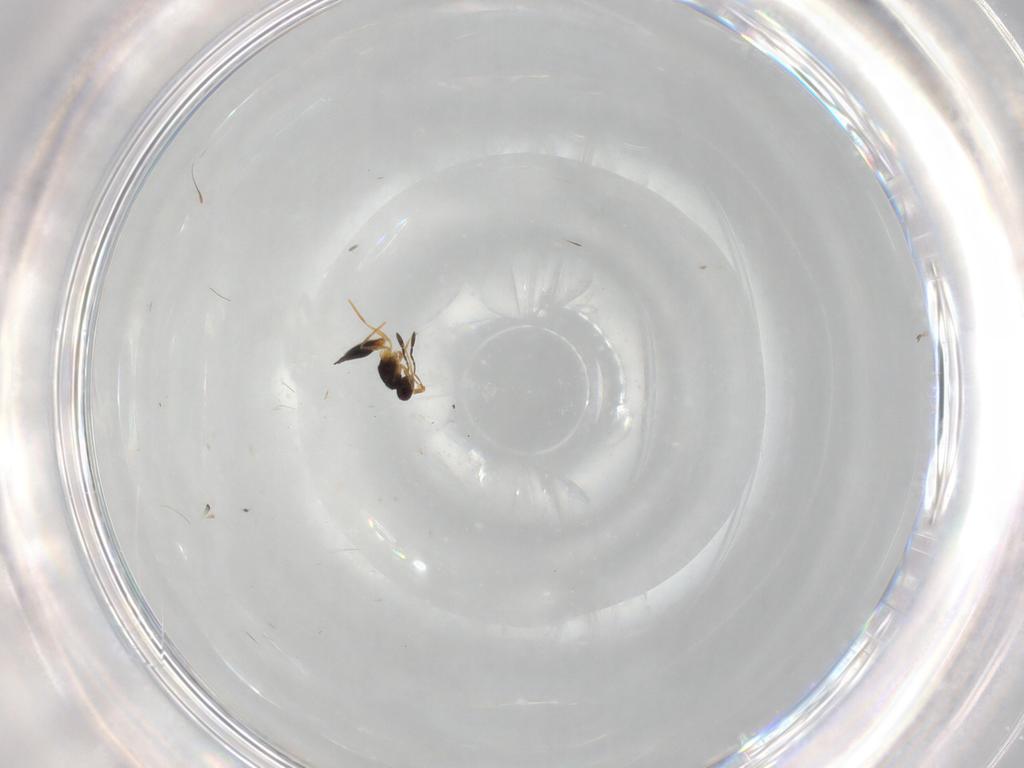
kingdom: Animalia
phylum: Arthropoda
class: Insecta
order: Hymenoptera
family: Mymaridae
